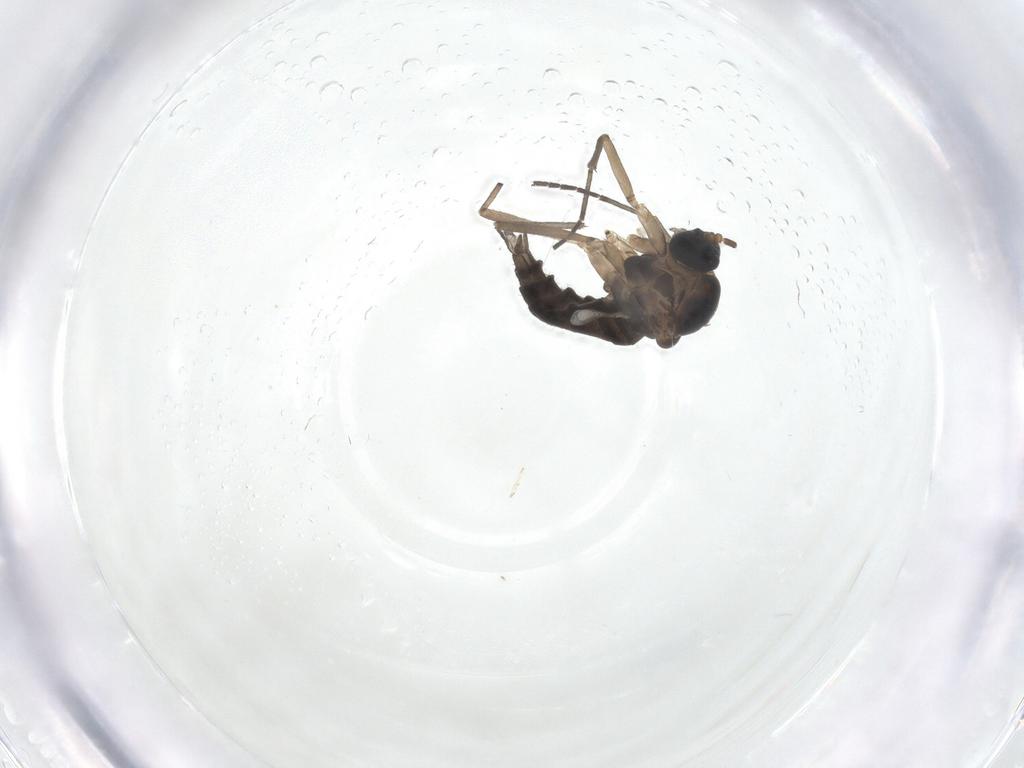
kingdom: Animalia
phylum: Arthropoda
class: Insecta
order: Diptera
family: Sciaridae
